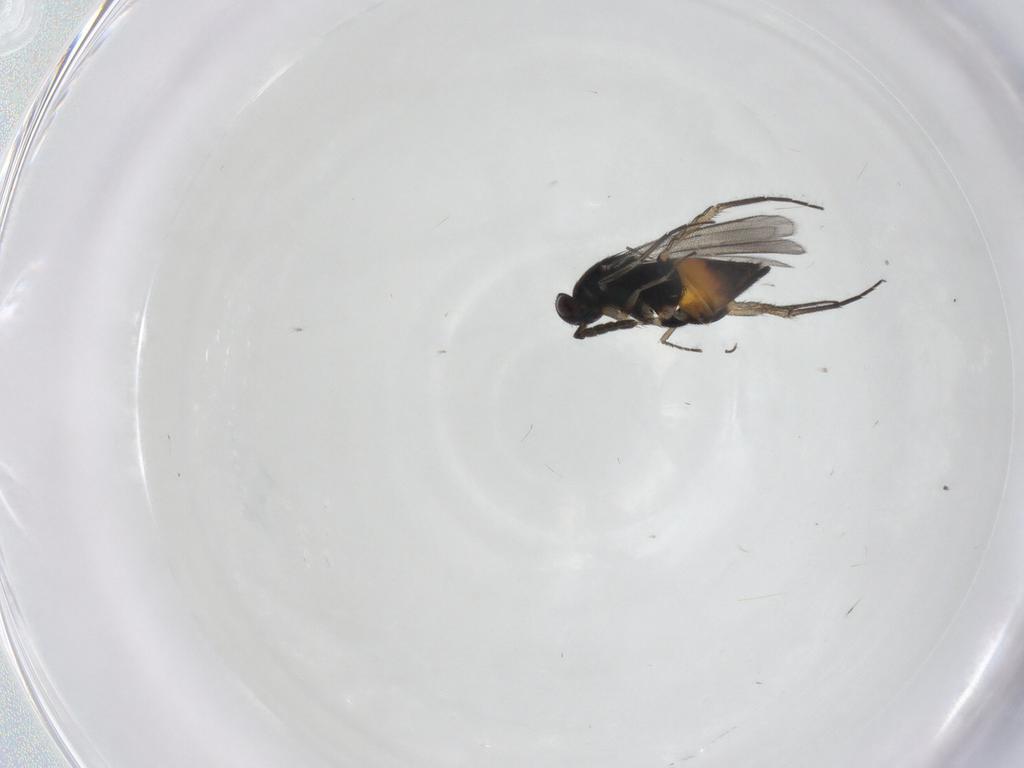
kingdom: Animalia
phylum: Arthropoda
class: Insecta
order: Hymenoptera
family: Eulophidae
